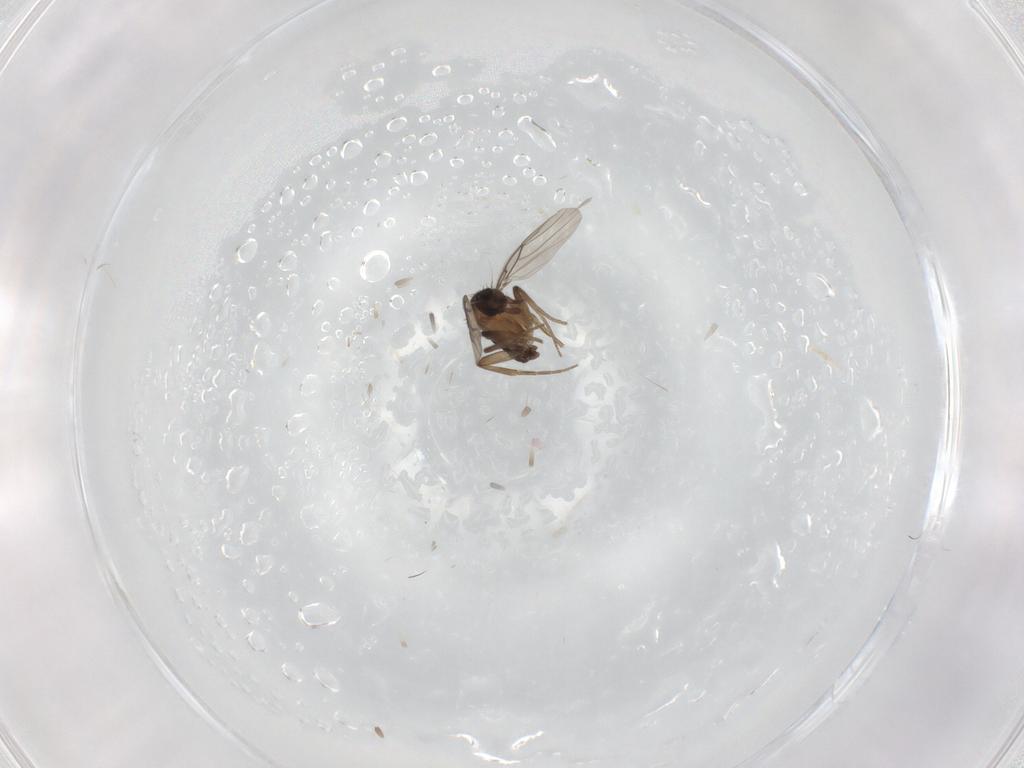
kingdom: Animalia
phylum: Arthropoda
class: Insecta
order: Diptera
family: Phoridae
